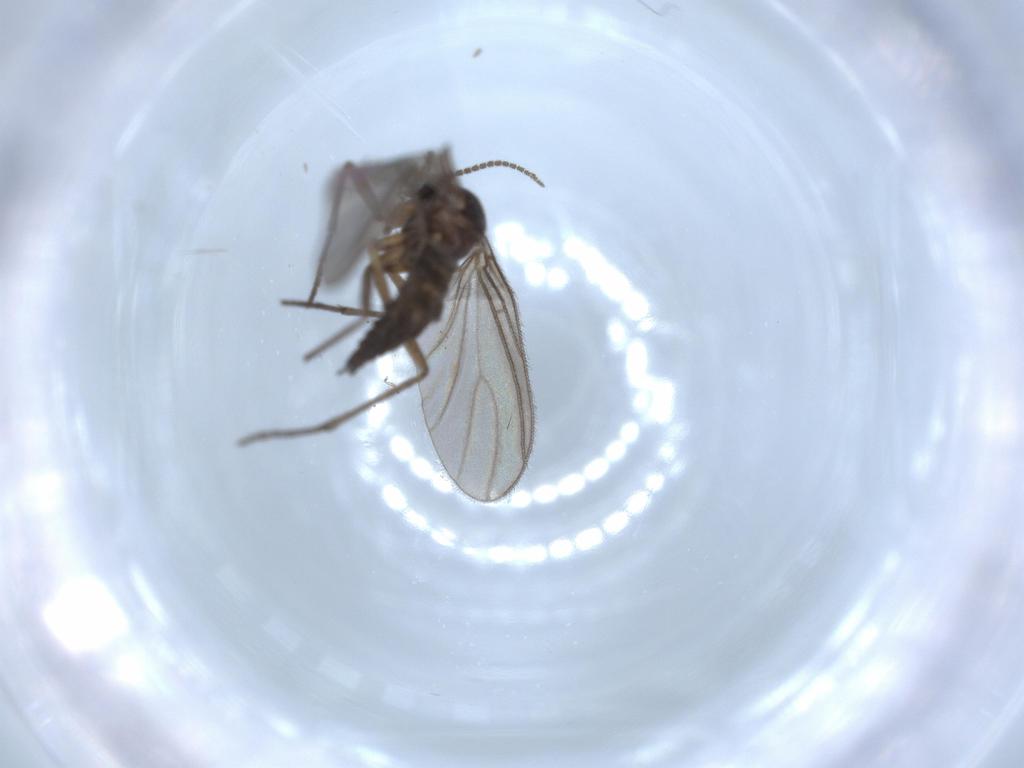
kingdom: Animalia
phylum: Arthropoda
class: Insecta
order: Diptera
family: Sciaridae
